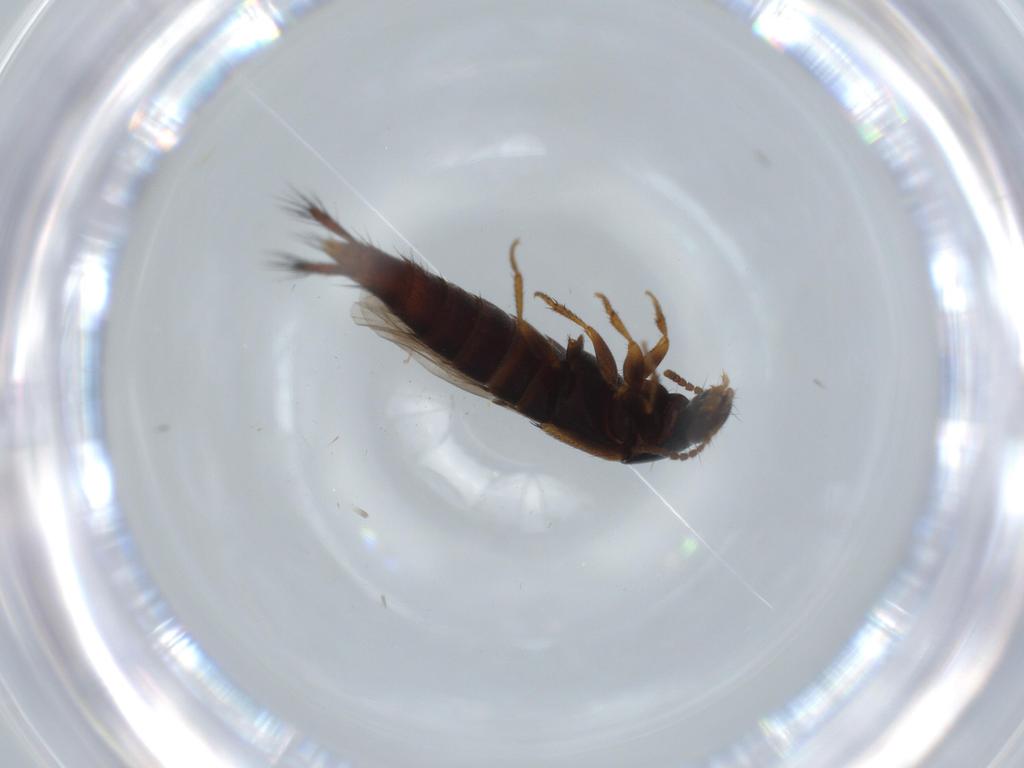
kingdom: Animalia
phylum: Arthropoda
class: Insecta
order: Coleoptera
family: Staphylinidae
